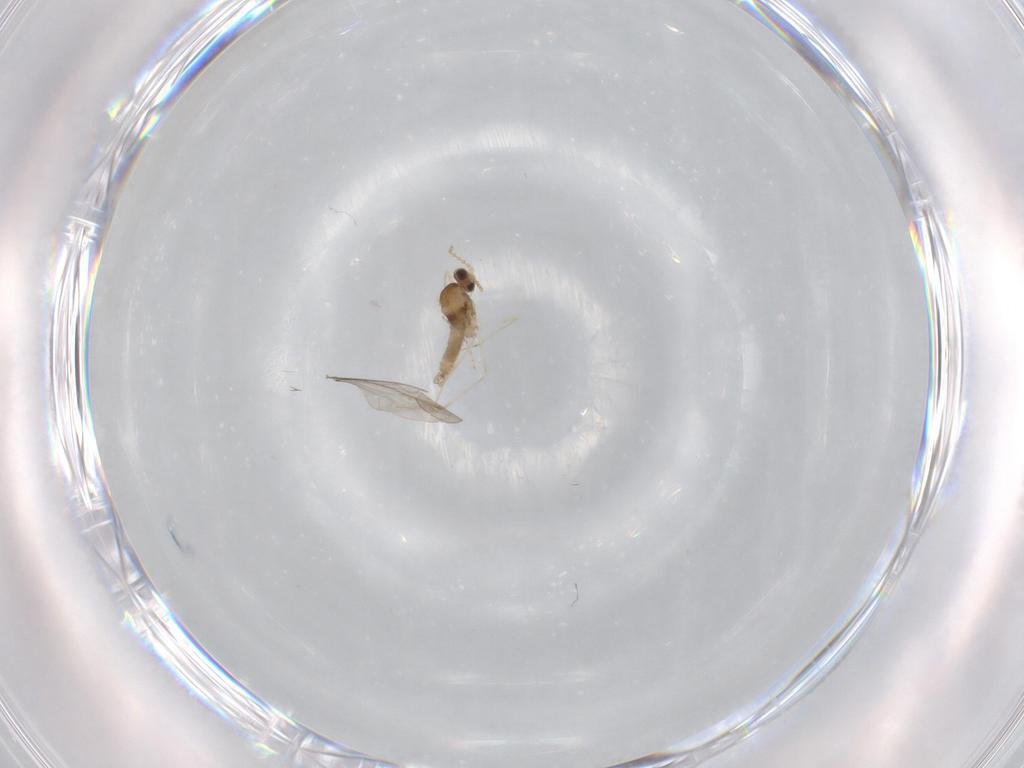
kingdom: Animalia
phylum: Arthropoda
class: Insecta
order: Diptera
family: Cecidomyiidae
